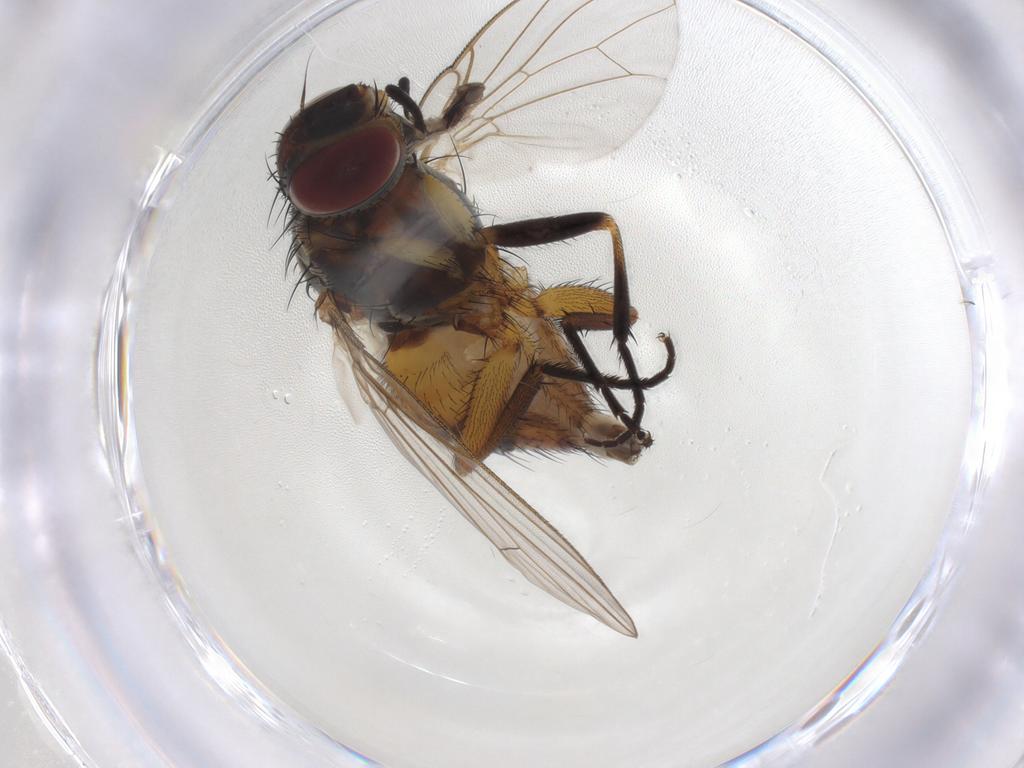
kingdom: Animalia
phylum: Arthropoda
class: Insecta
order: Diptera
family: Muscidae
